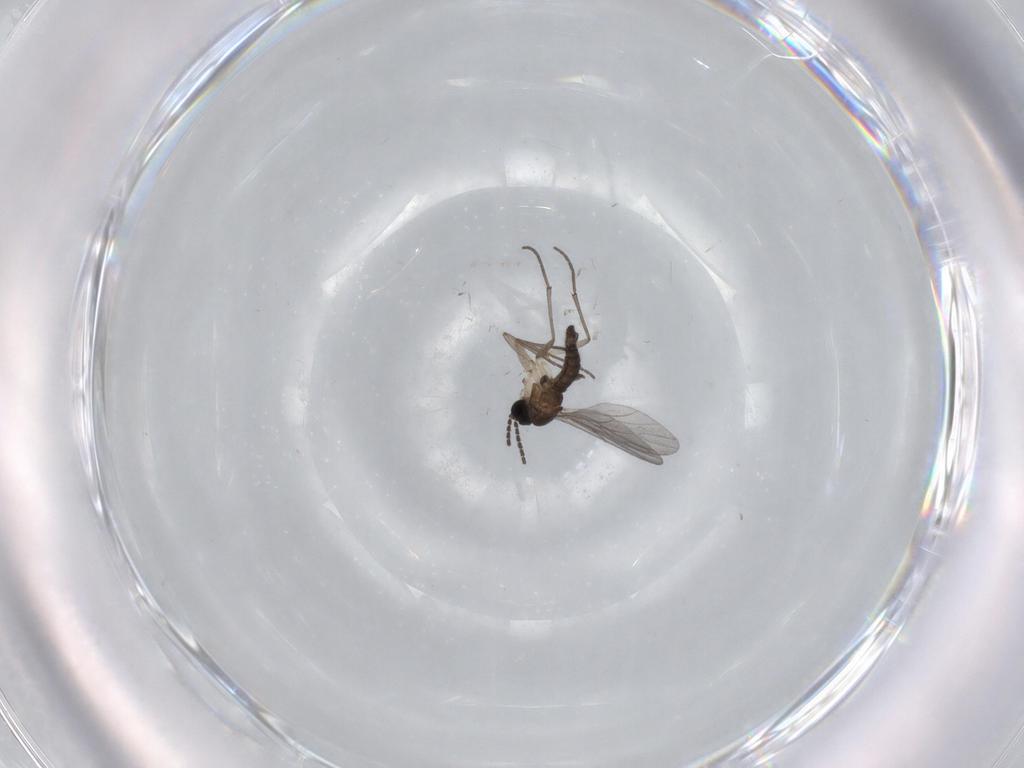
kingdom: Animalia
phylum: Arthropoda
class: Insecta
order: Diptera
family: Sciaridae
